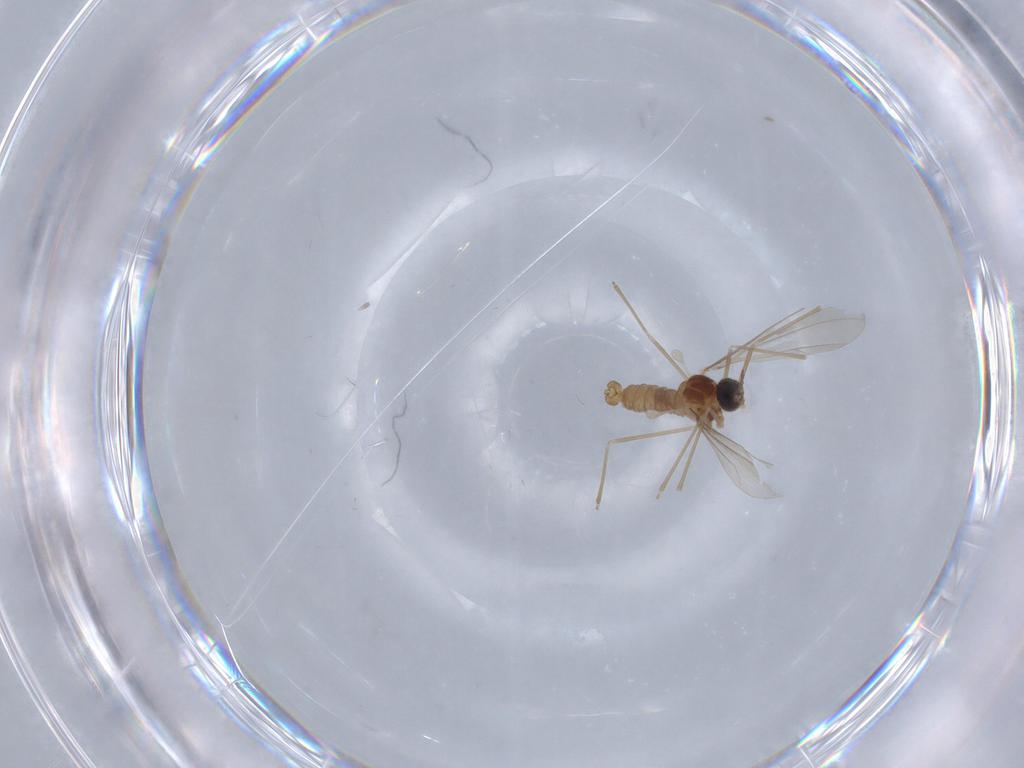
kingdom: Animalia
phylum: Arthropoda
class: Insecta
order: Diptera
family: Cecidomyiidae
